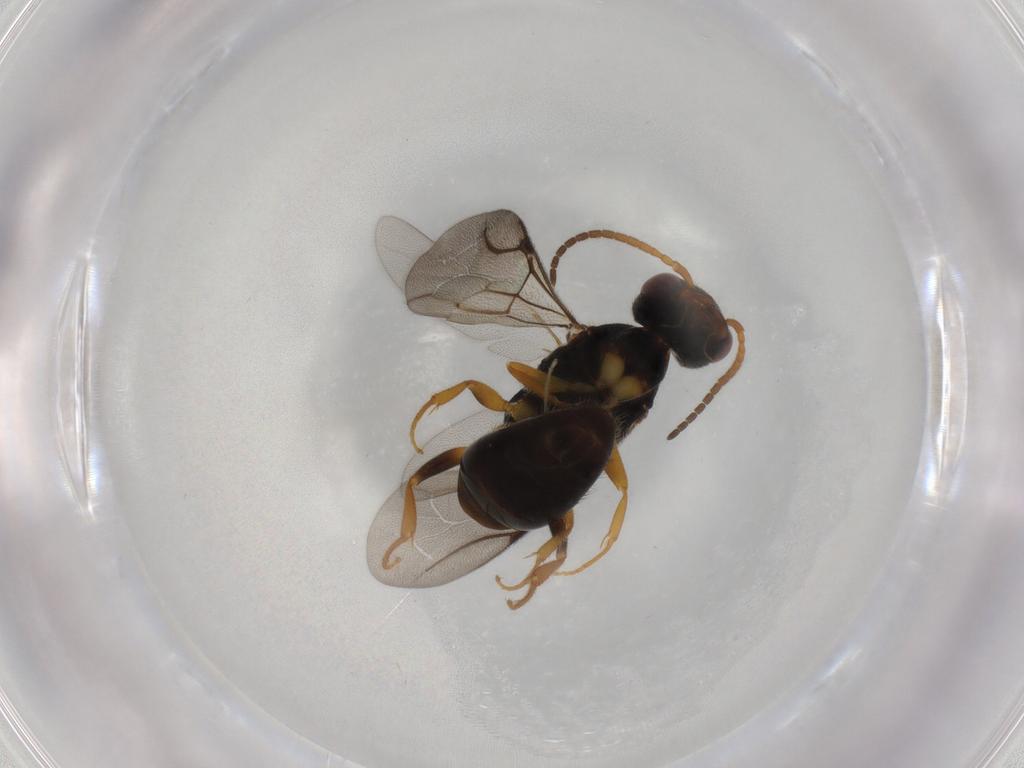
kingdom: Animalia
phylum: Arthropoda
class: Insecta
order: Hymenoptera
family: Bethylidae
